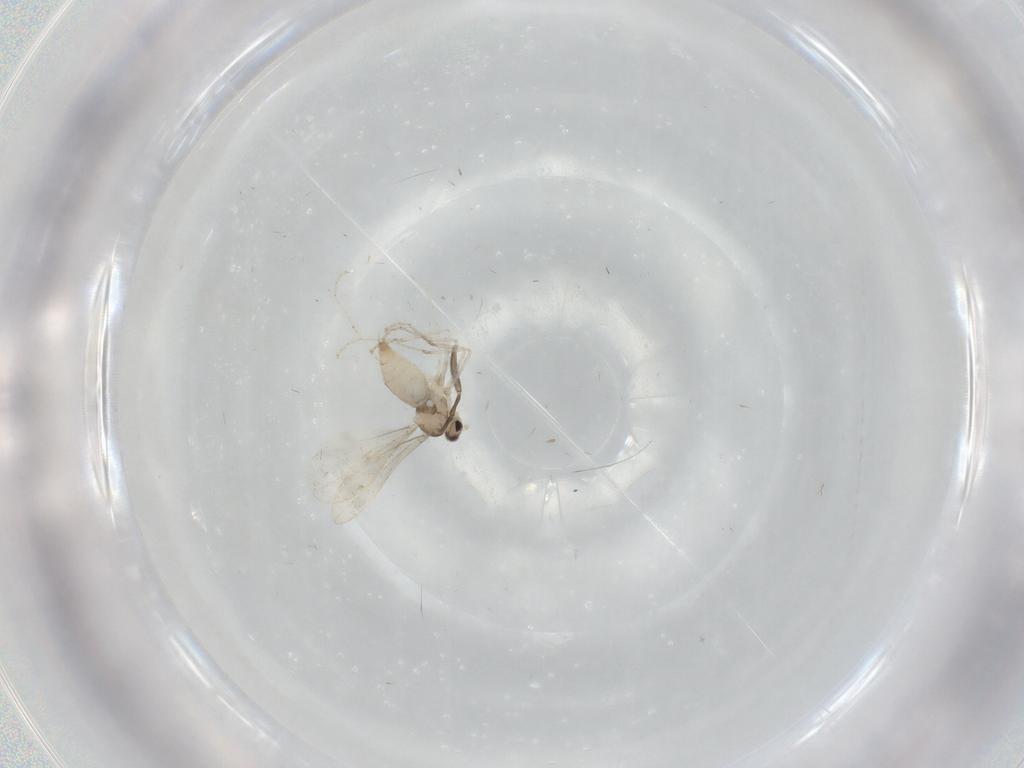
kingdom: Animalia
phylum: Arthropoda
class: Insecta
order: Diptera
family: Cecidomyiidae
